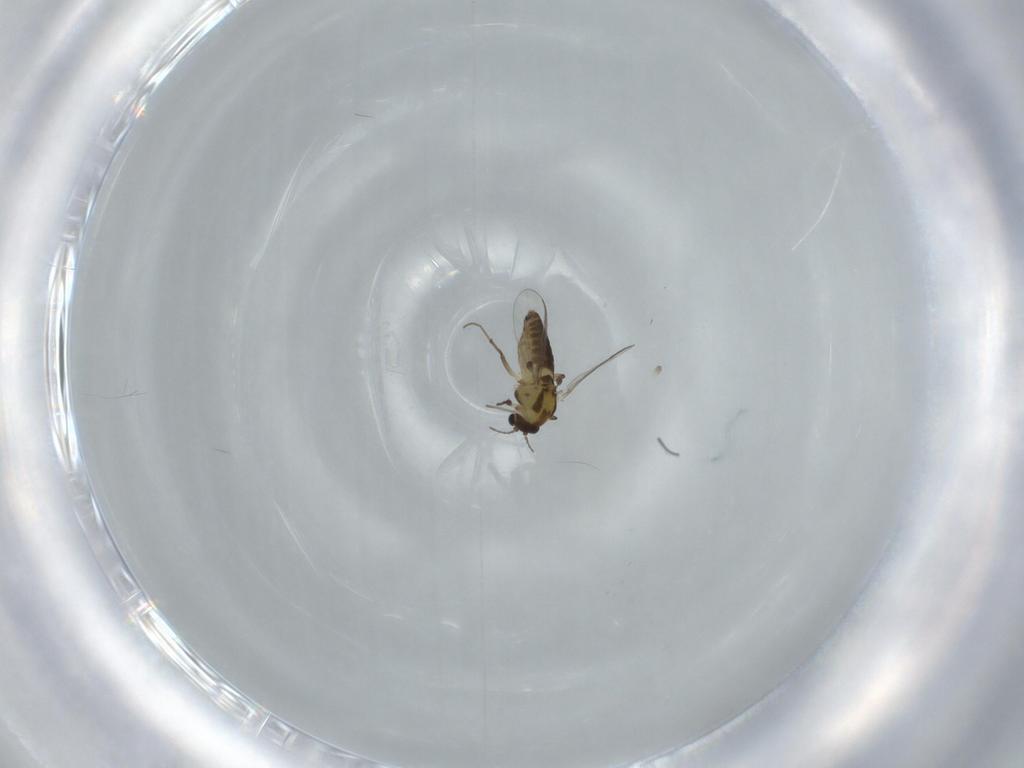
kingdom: Animalia
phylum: Arthropoda
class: Insecta
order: Diptera
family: Chironomidae
